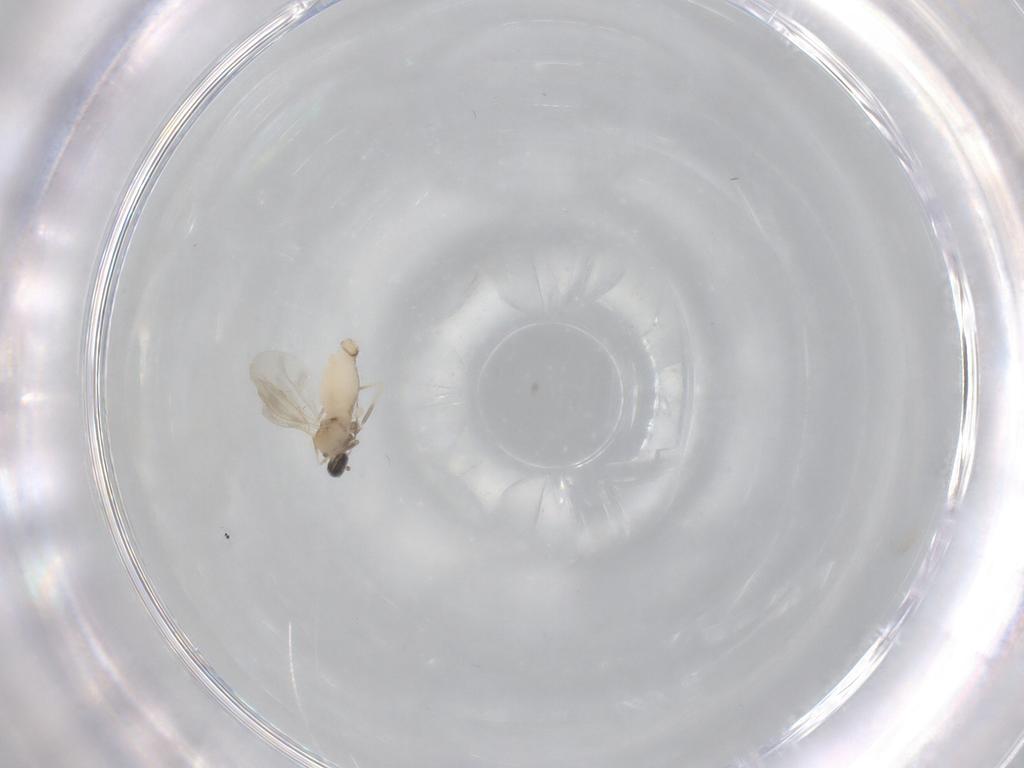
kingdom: Animalia
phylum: Arthropoda
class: Insecta
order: Diptera
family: Cecidomyiidae
